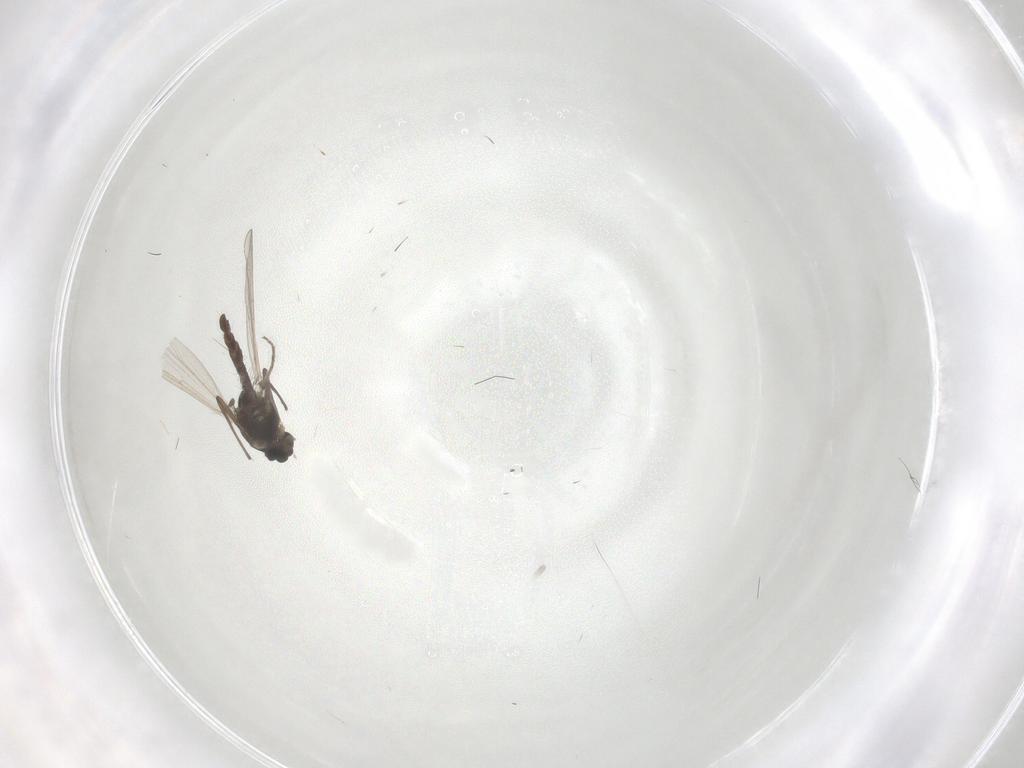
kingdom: Animalia
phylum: Arthropoda
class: Insecta
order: Diptera
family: Chironomidae
